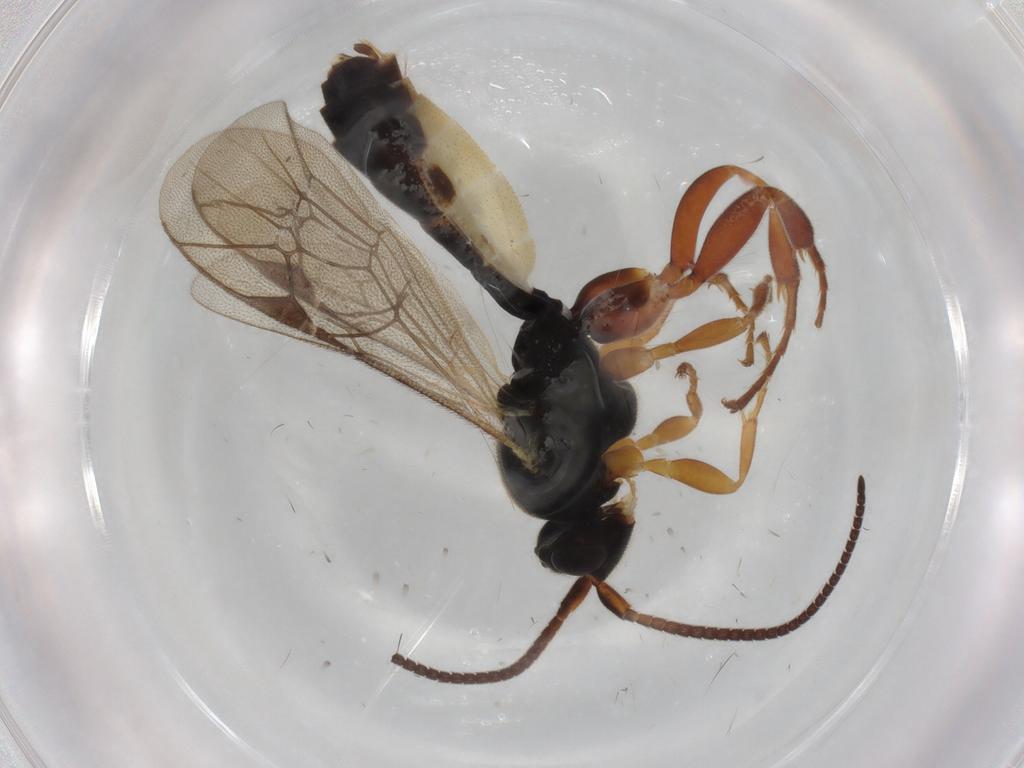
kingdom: Animalia
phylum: Arthropoda
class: Insecta
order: Hymenoptera
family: Ichneumonidae
